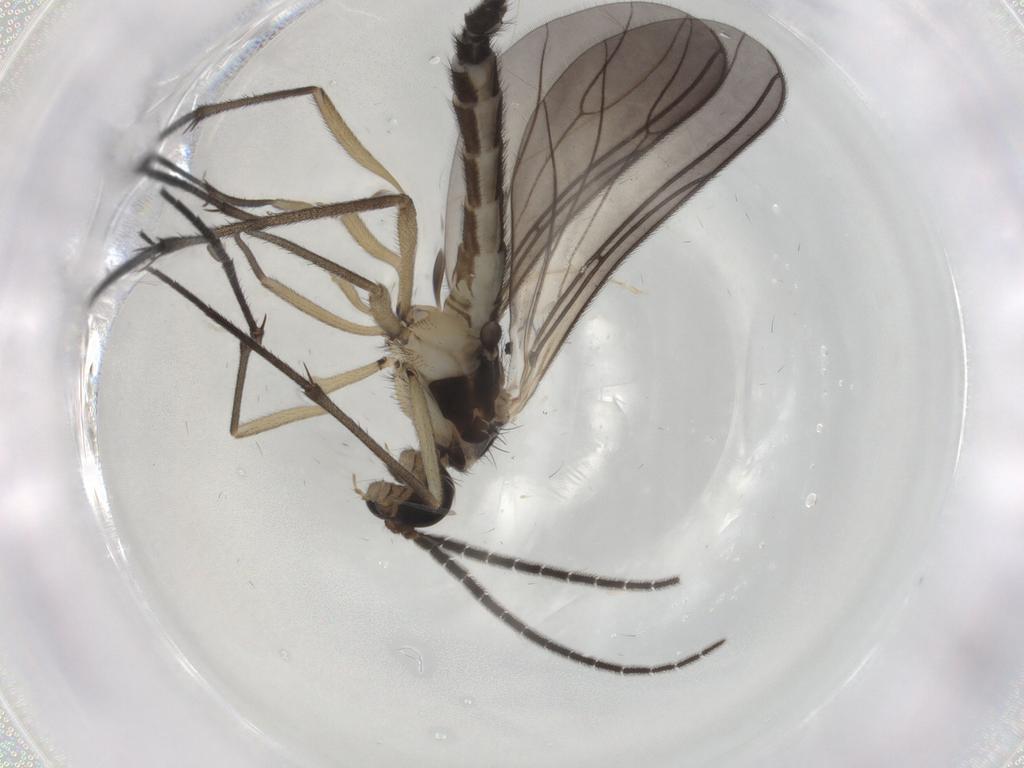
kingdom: Animalia
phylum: Arthropoda
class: Insecta
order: Diptera
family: Sciaridae
